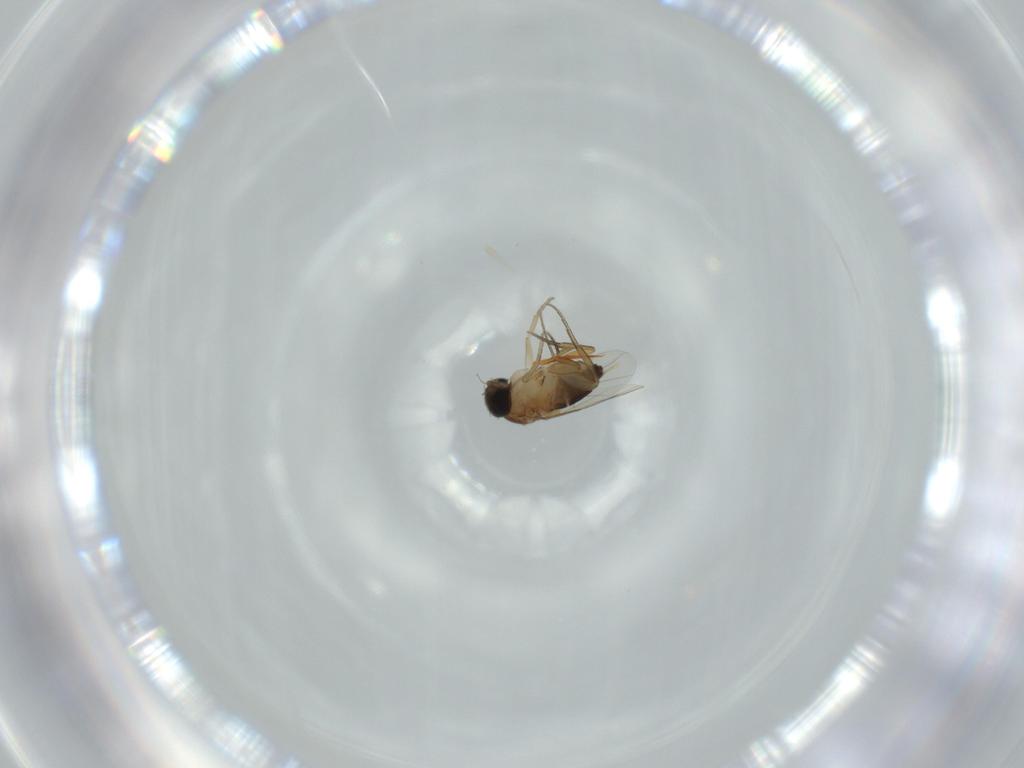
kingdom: Animalia
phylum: Arthropoda
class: Insecta
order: Diptera
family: Phoridae
